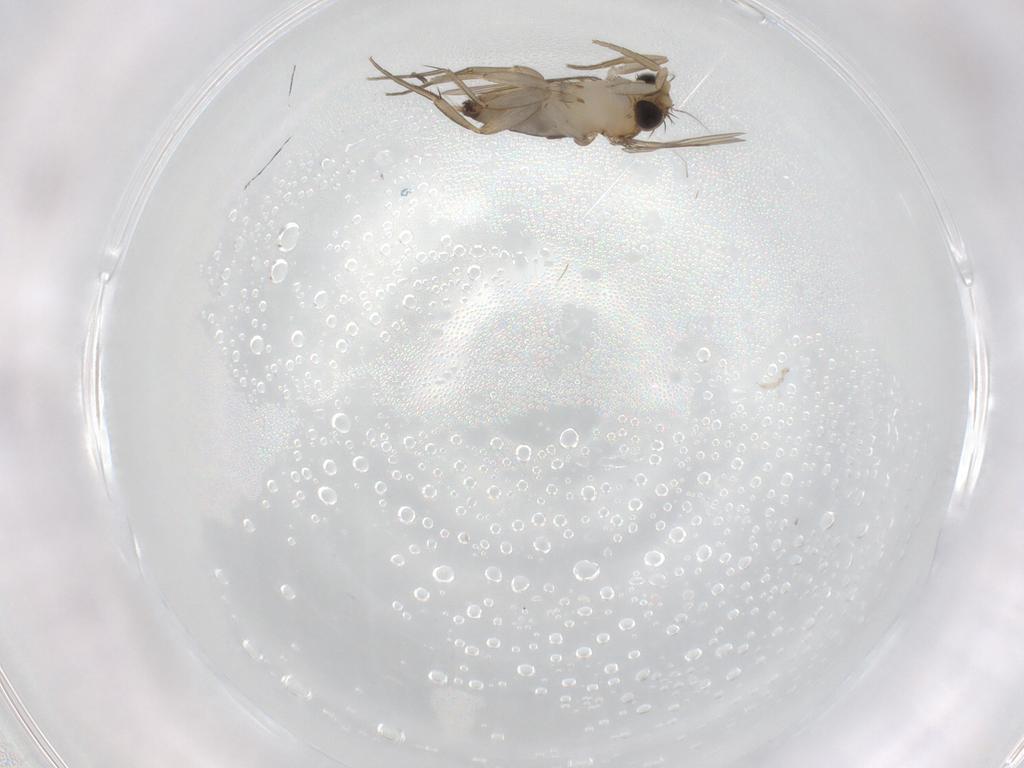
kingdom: Animalia
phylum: Arthropoda
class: Insecta
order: Diptera
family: Phoridae
